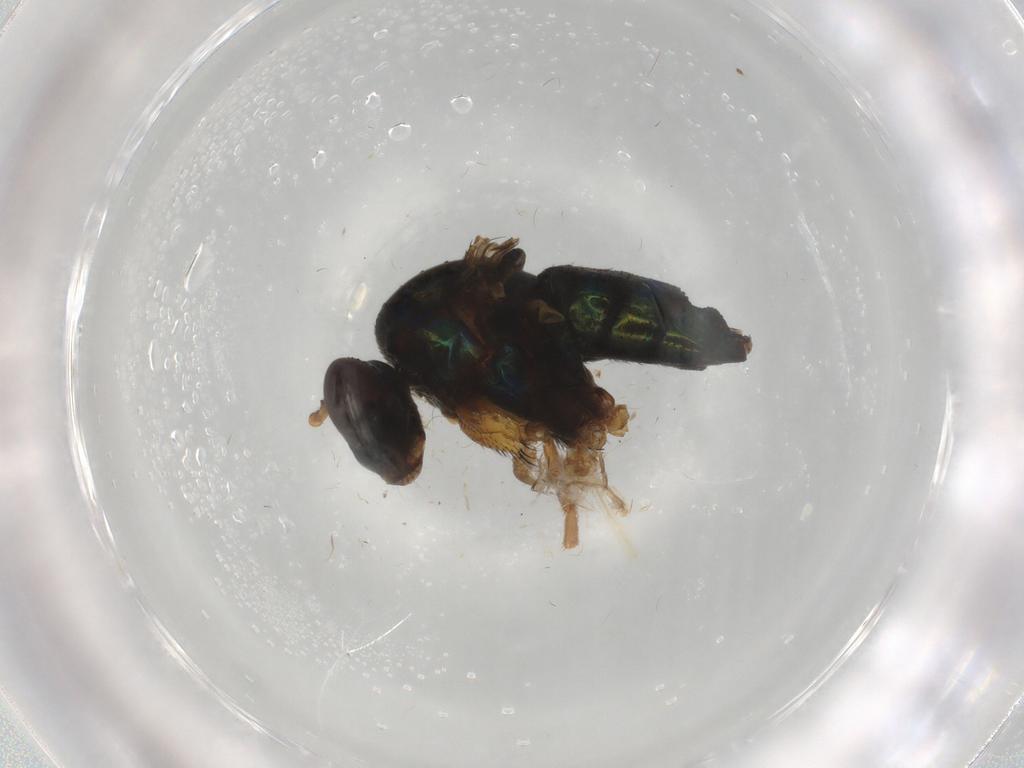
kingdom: Animalia
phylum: Arthropoda
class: Insecta
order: Diptera
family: Dolichopodidae
